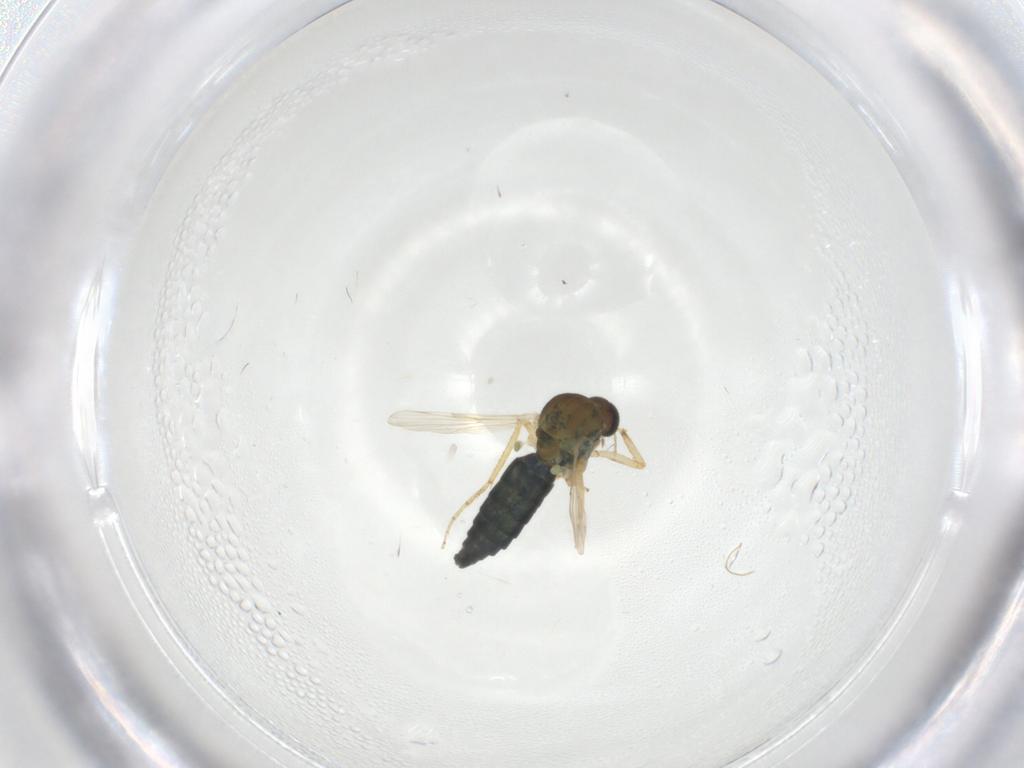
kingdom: Animalia
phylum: Arthropoda
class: Insecta
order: Diptera
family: Ceratopogonidae
